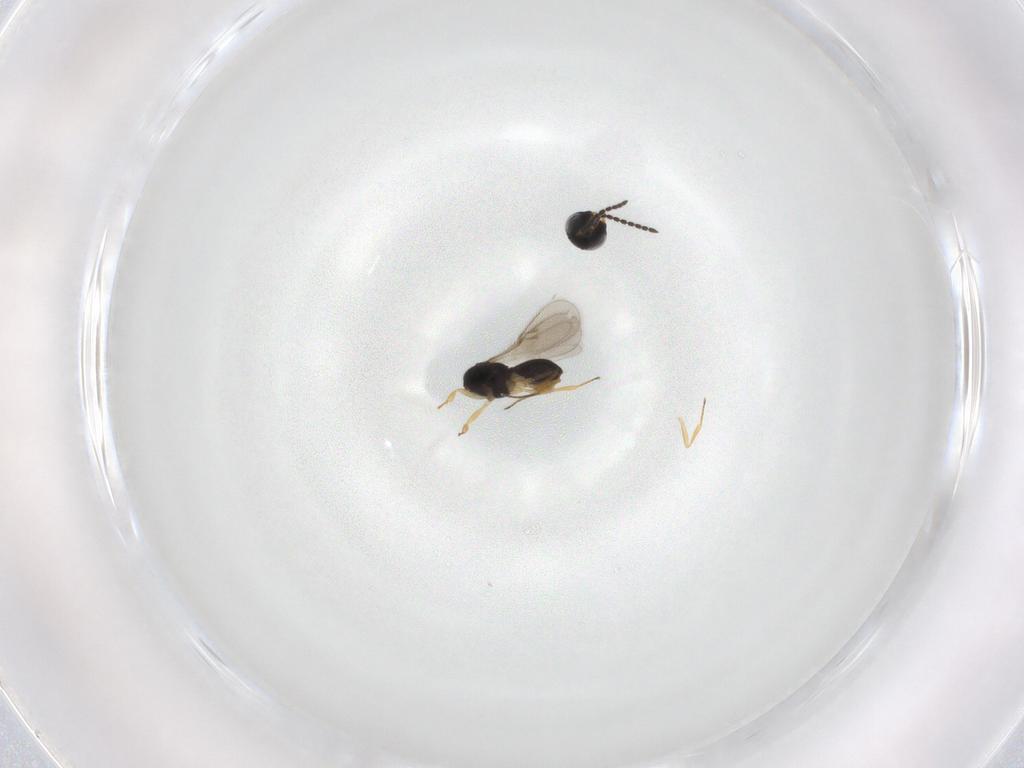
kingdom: Animalia
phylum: Arthropoda
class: Insecta
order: Hymenoptera
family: Scelionidae
